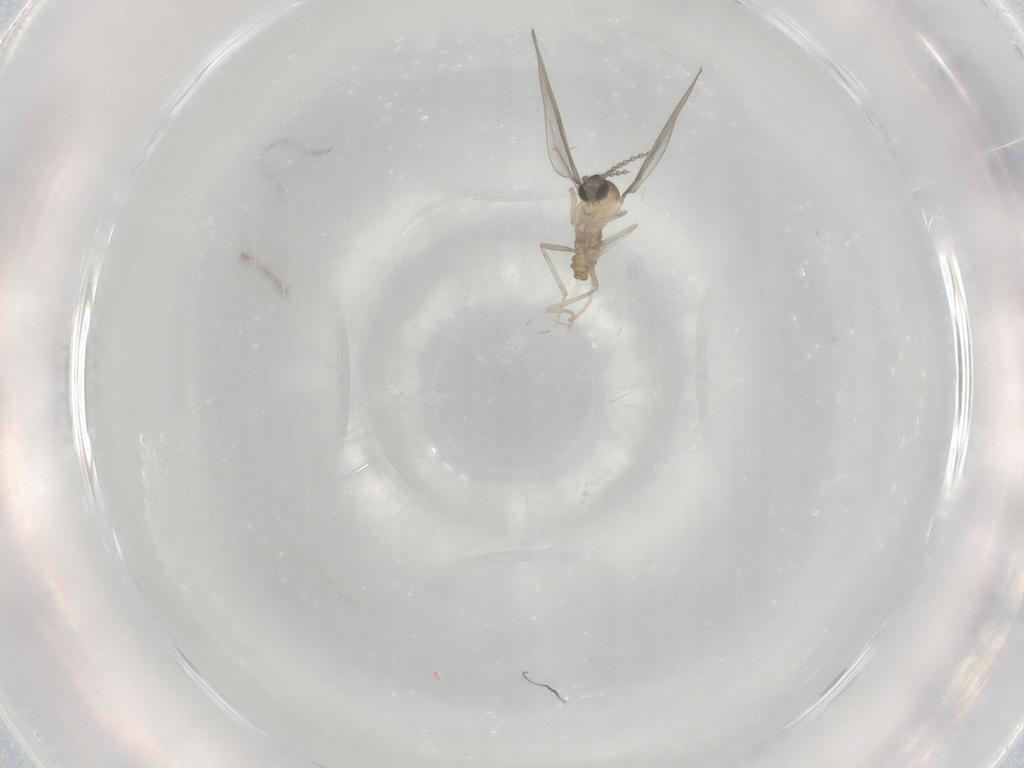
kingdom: Animalia
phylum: Arthropoda
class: Insecta
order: Diptera
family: Cecidomyiidae
